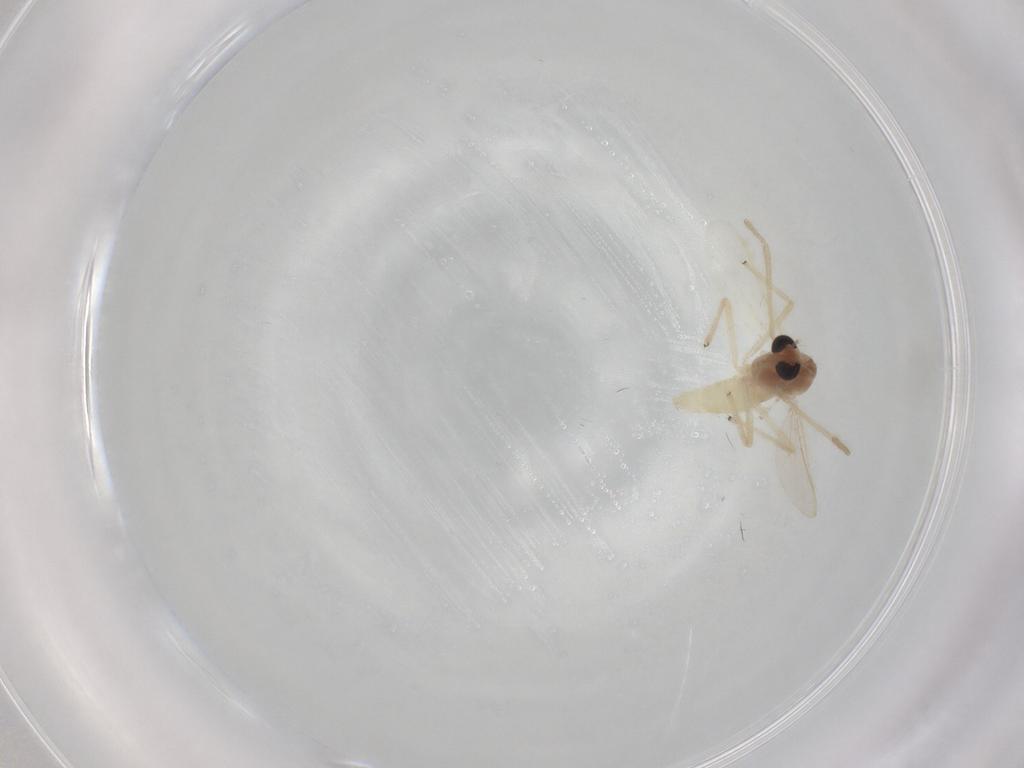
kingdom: Animalia
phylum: Arthropoda
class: Insecta
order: Diptera
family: Chironomidae
